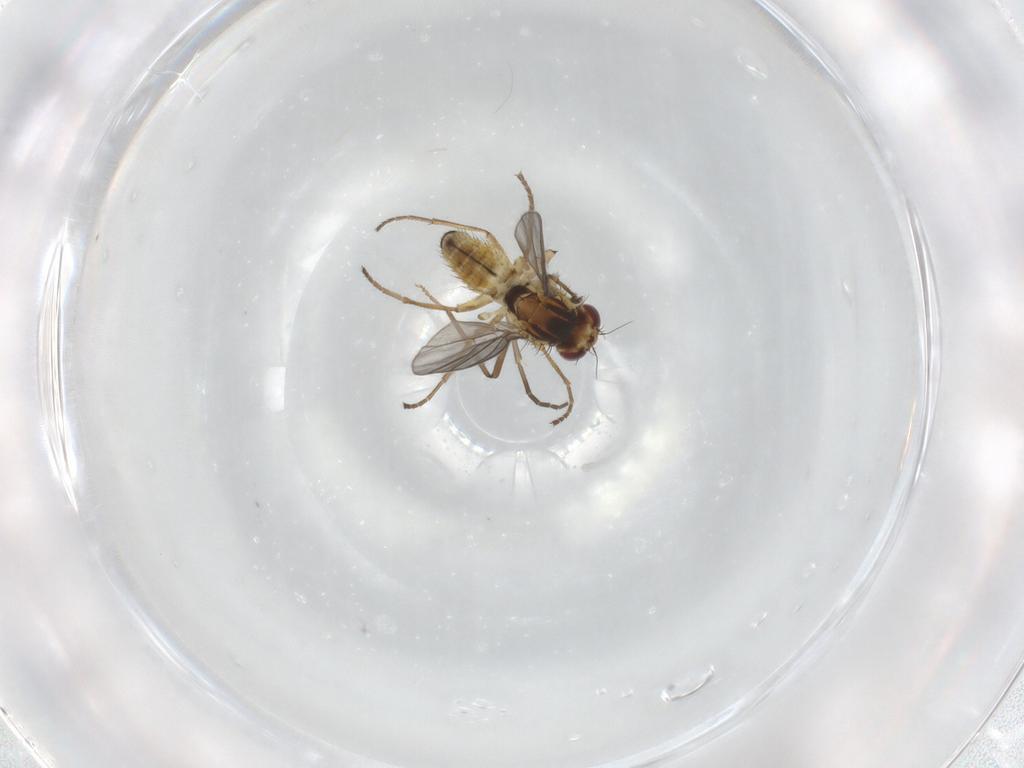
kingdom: Animalia
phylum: Arthropoda
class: Insecta
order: Diptera
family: Agromyzidae
